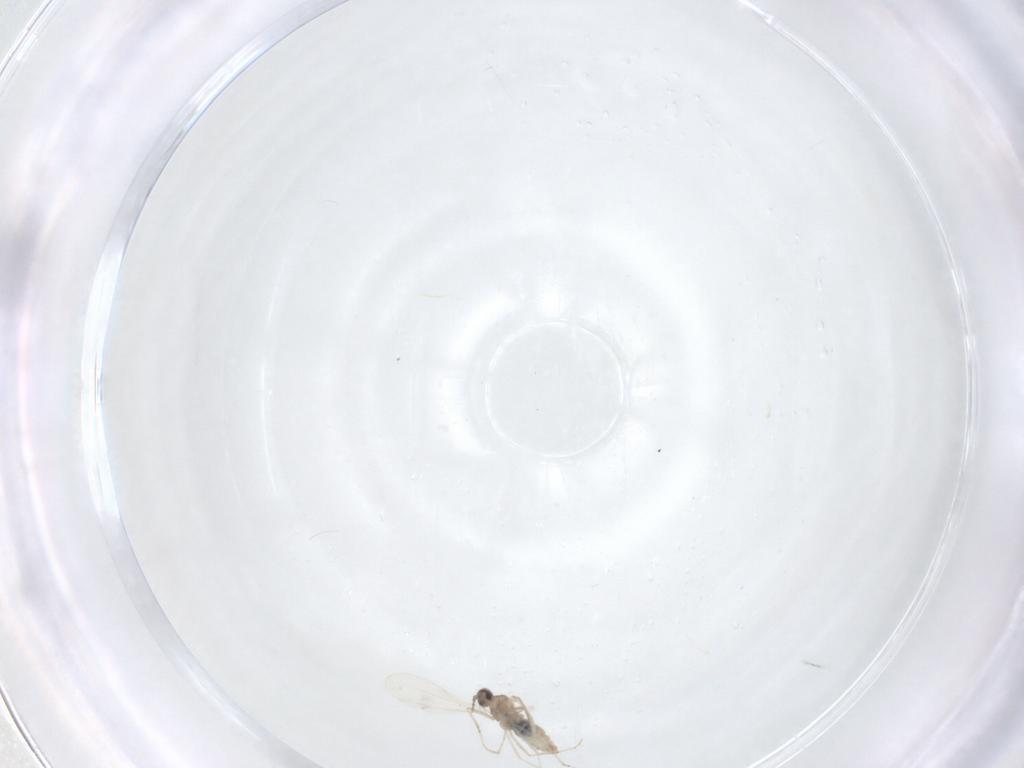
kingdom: Animalia
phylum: Arthropoda
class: Insecta
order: Diptera
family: Cecidomyiidae
